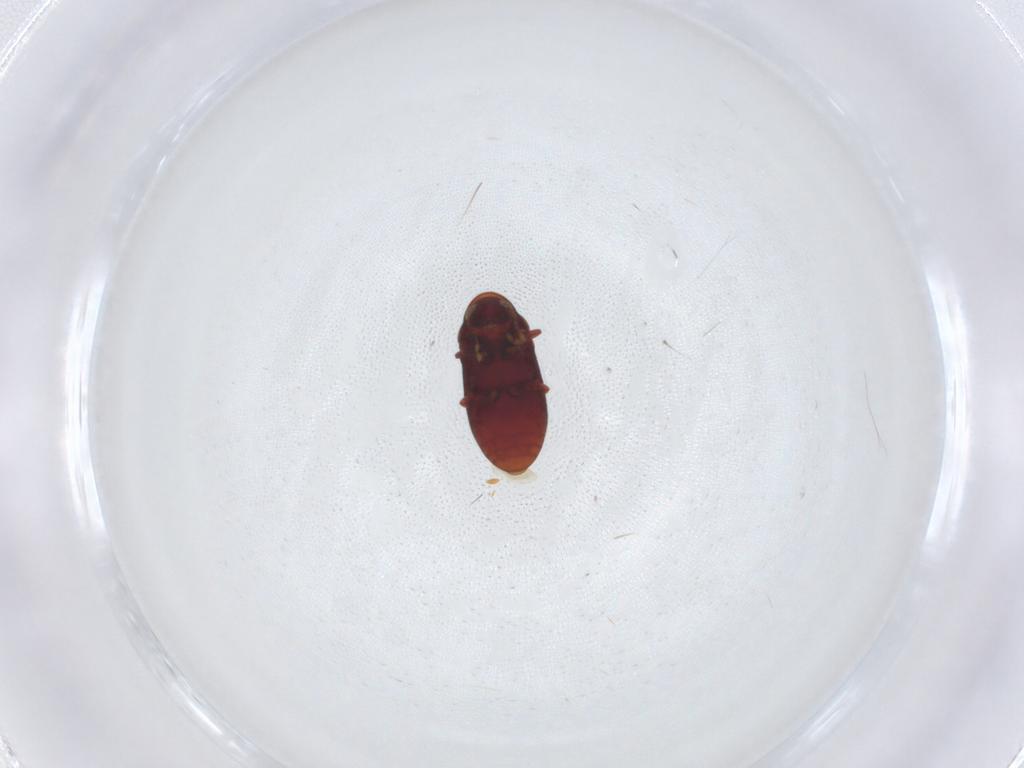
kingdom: Animalia
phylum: Arthropoda
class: Insecta
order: Coleoptera
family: Ptinidae
